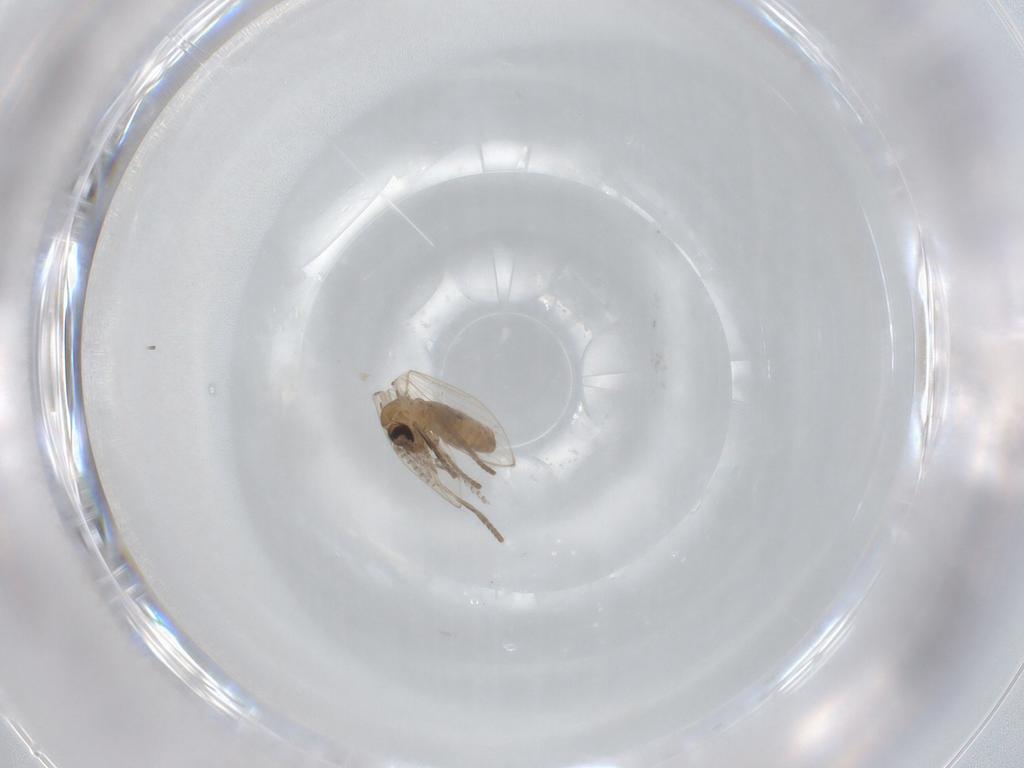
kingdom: Animalia
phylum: Arthropoda
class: Insecta
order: Diptera
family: Psychodidae
